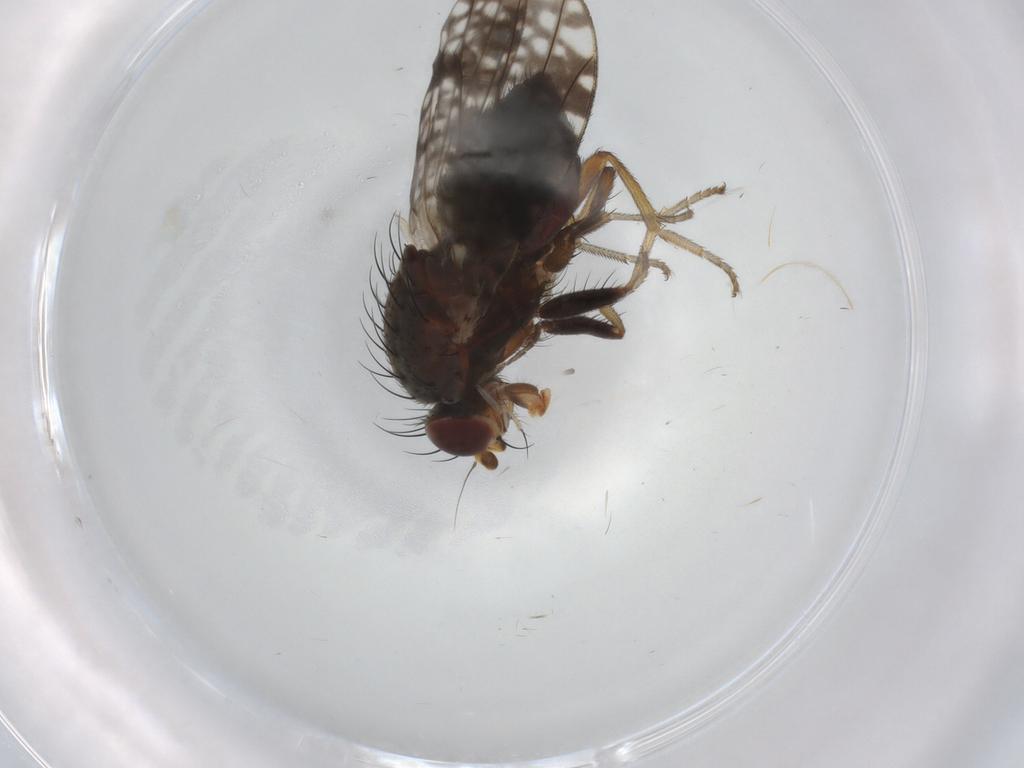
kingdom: Animalia
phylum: Arthropoda
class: Insecta
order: Diptera
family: Tephritidae
